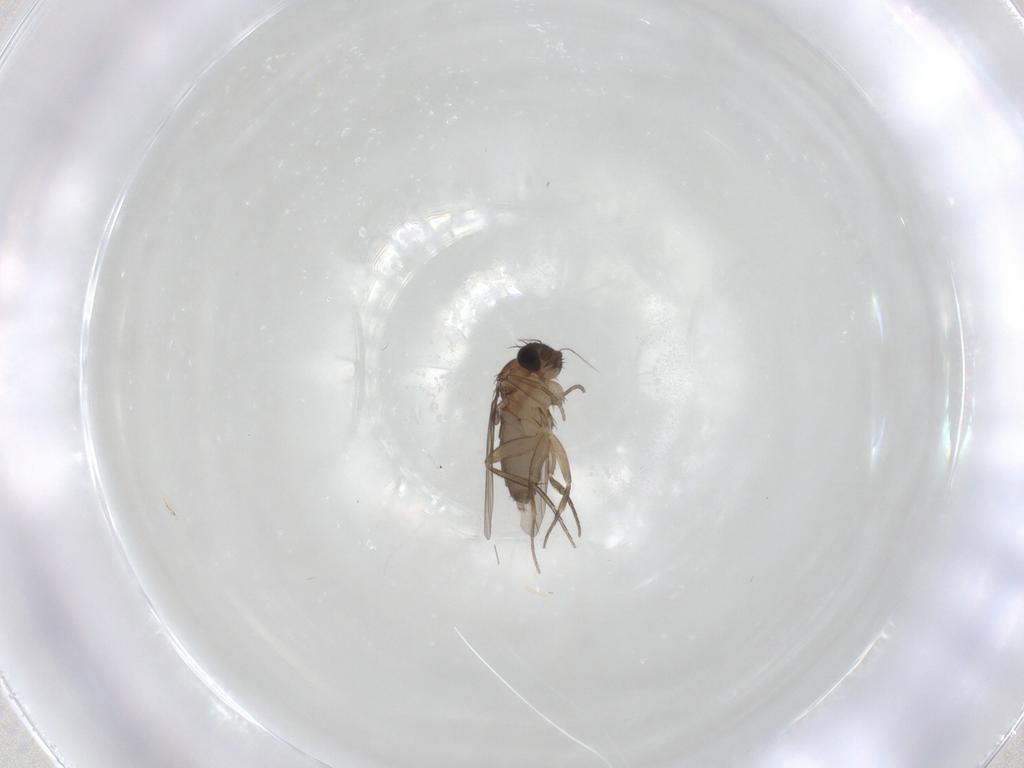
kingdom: Animalia
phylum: Arthropoda
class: Insecta
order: Diptera
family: Phoridae
